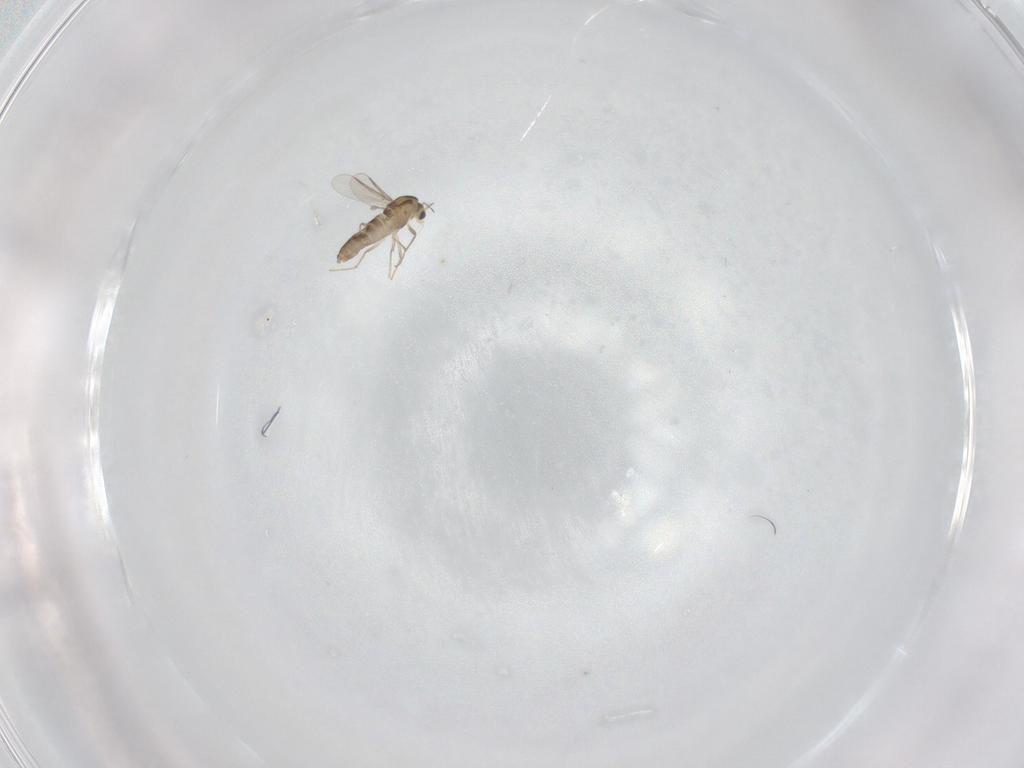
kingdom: Animalia
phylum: Arthropoda
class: Insecta
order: Diptera
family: Chironomidae
